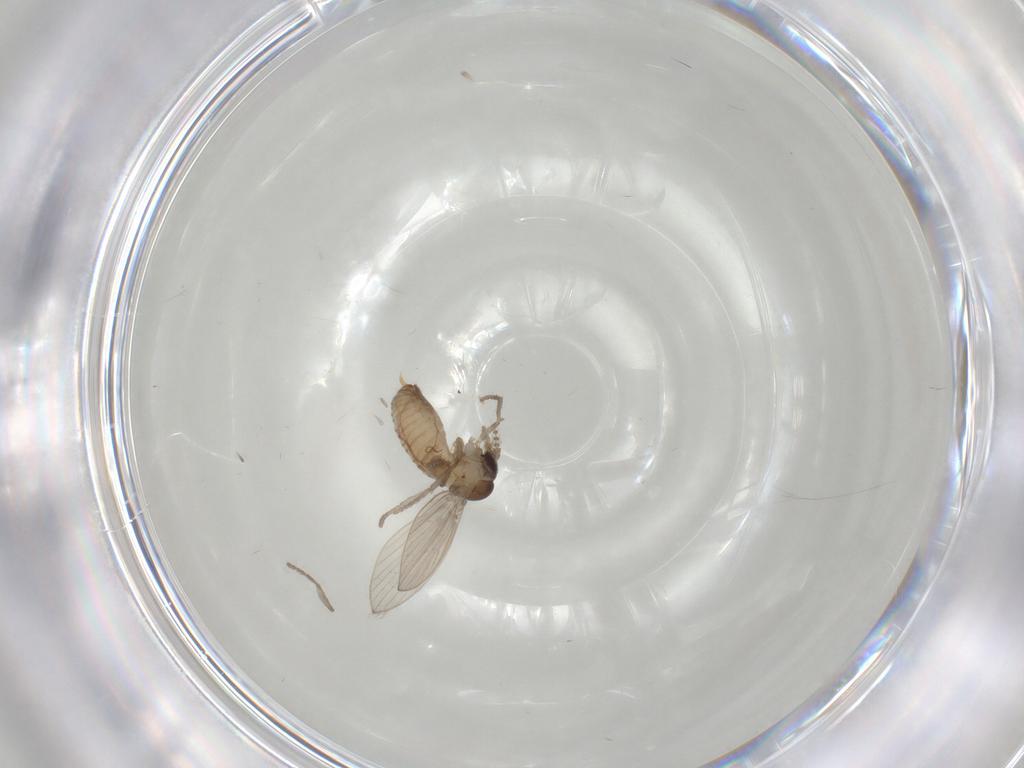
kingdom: Animalia
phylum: Arthropoda
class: Insecta
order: Diptera
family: Psychodidae
